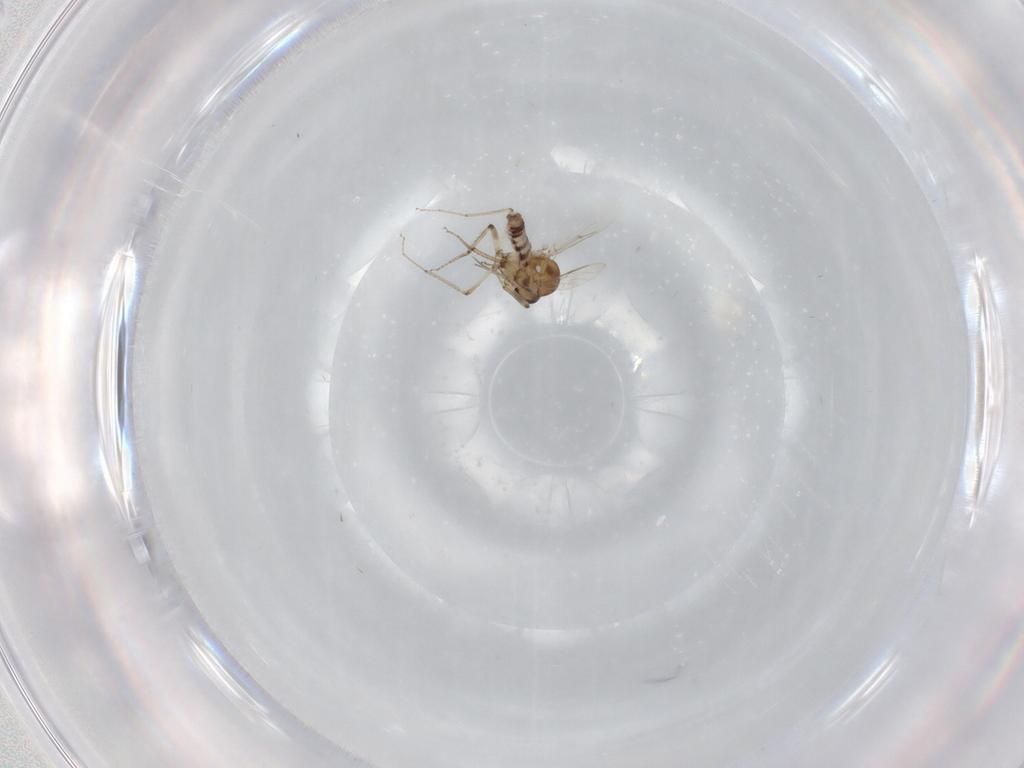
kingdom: Animalia
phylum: Arthropoda
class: Insecta
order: Diptera
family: Ceratopogonidae
